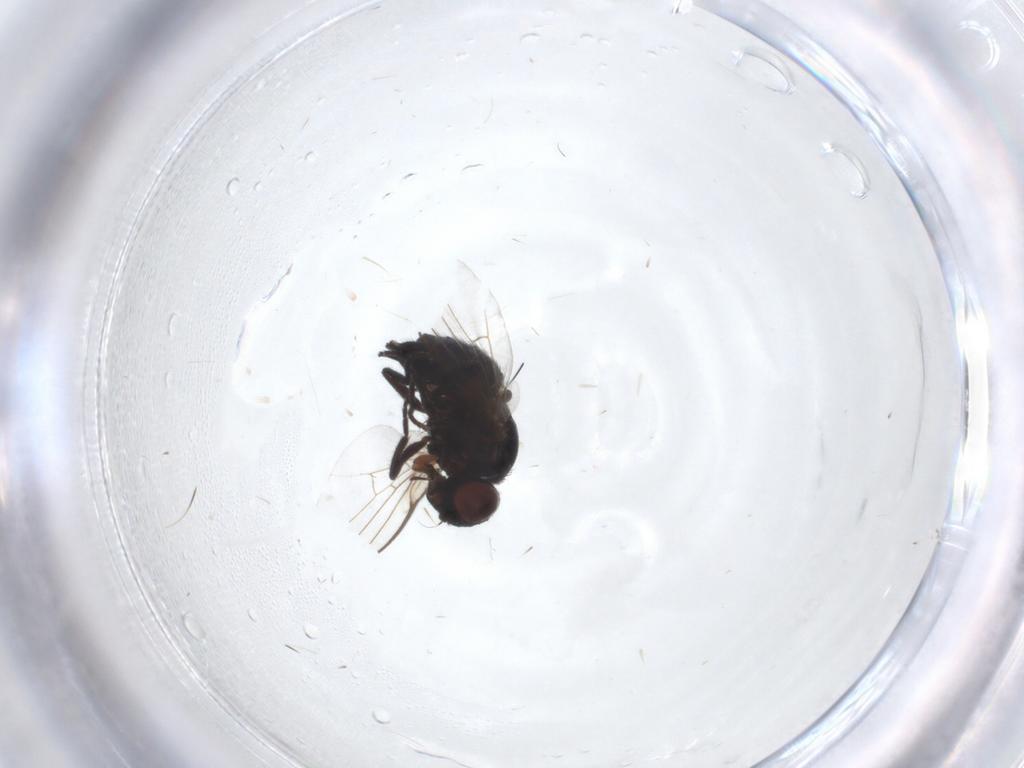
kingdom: Animalia
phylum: Arthropoda
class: Insecta
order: Diptera
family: Agromyzidae
